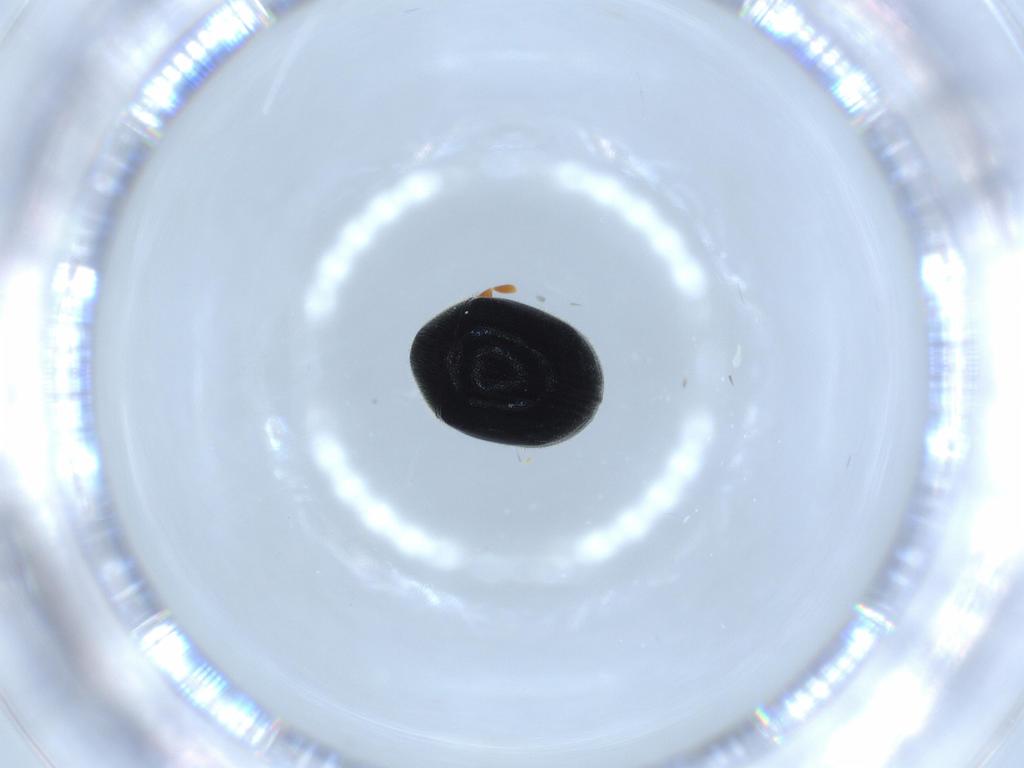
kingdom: Animalia
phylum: Arthropoda
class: Insecta
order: Coleoptera
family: Ptinidae
